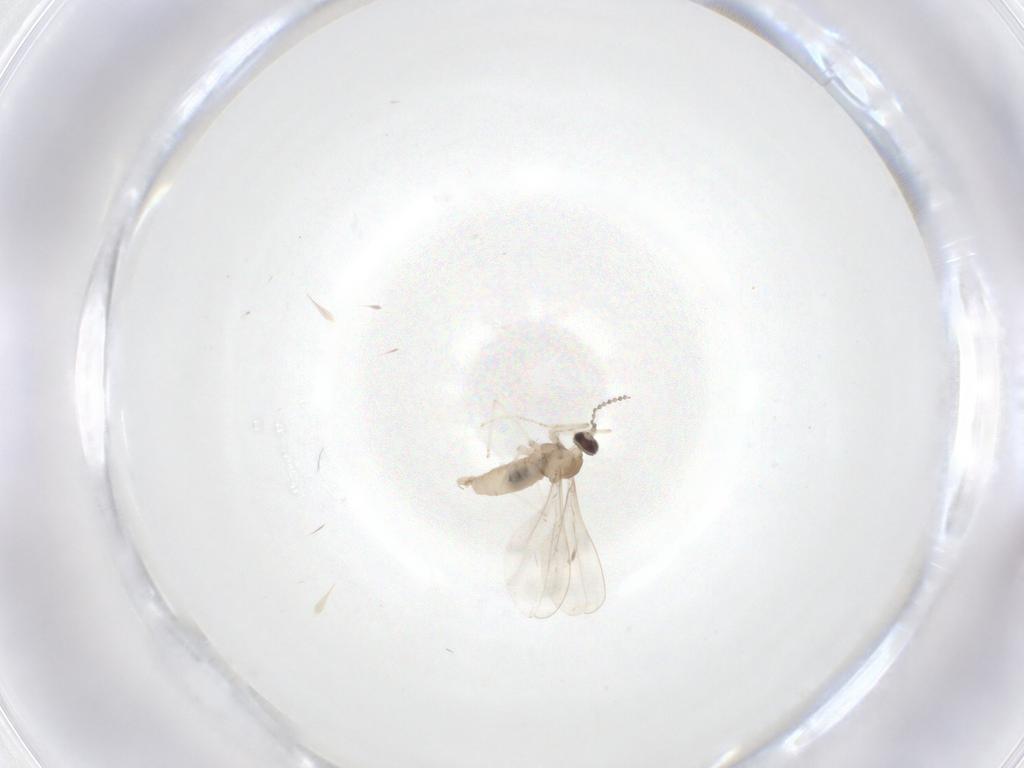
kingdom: Animalia
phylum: Arthropoda
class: Insecta
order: Diptera
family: Cecidomyiidae
